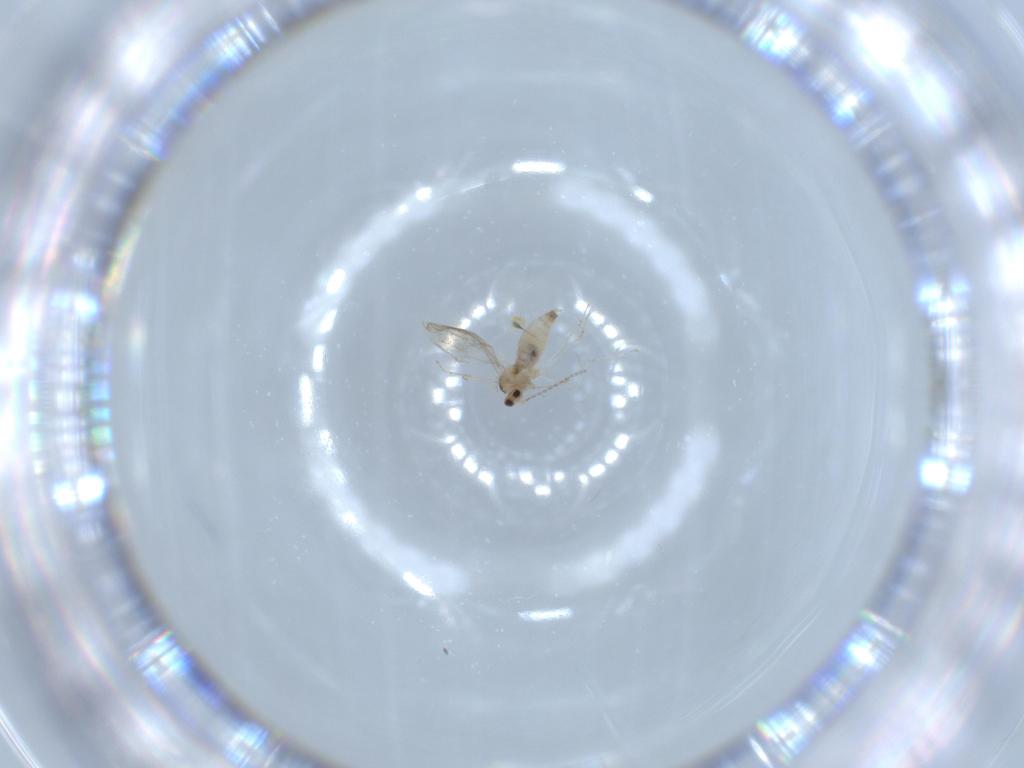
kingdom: Animalia
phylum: Arthropoda
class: Insecta
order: Diptera
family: Cecidomyiidae
